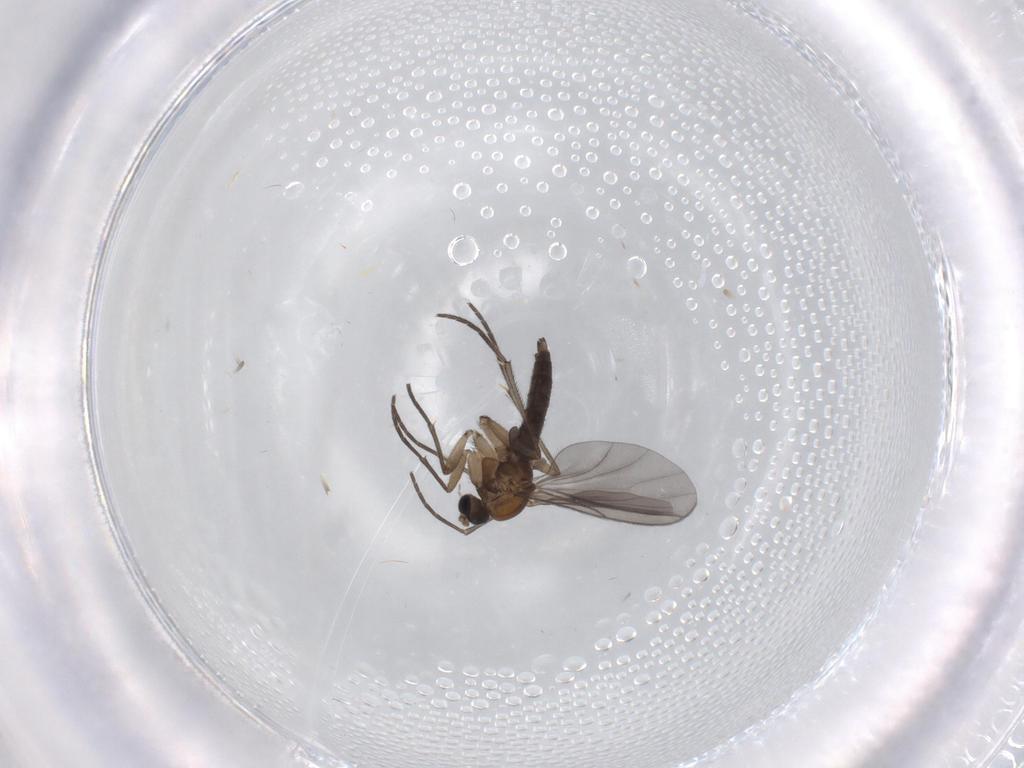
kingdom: Animalia
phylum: Arthropoda
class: Insecta
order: Diptera
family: Sciaridae
